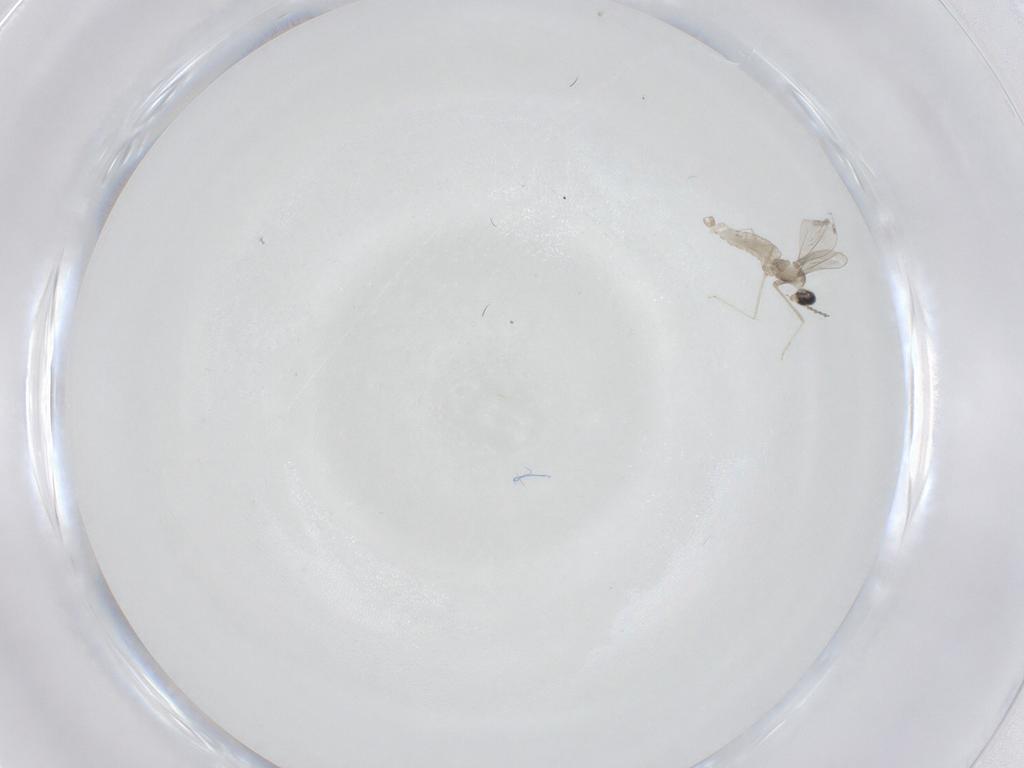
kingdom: Animalia
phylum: Arthropoda
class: Insecta
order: Diptera
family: Cecidomyiidae
